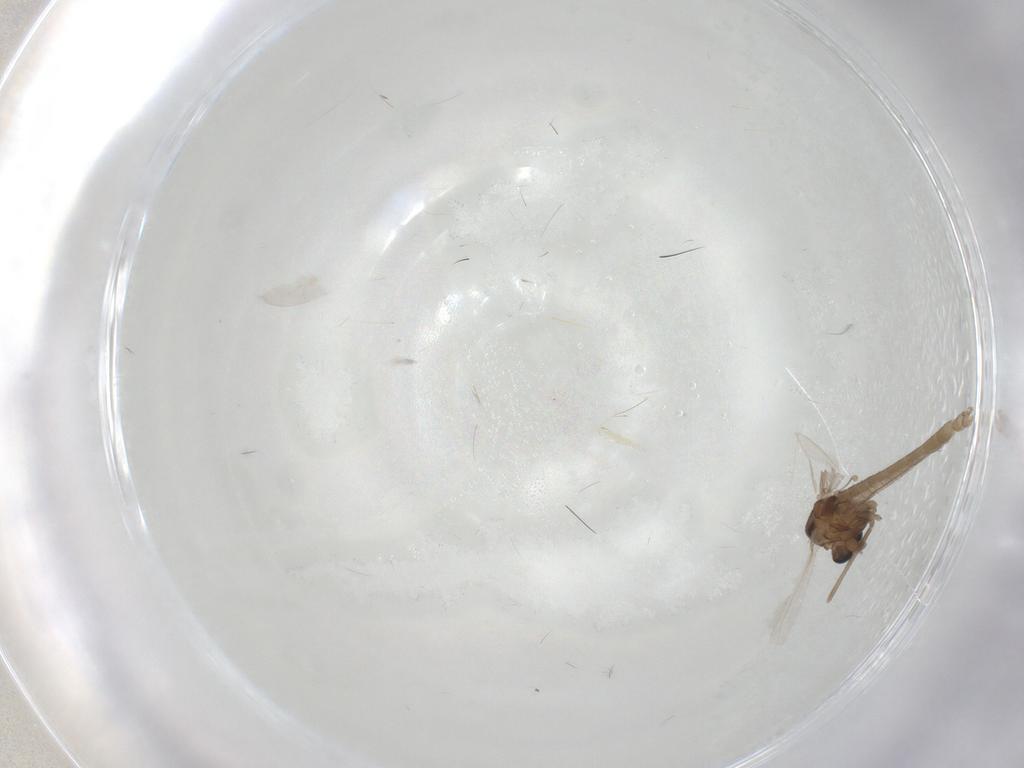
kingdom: Animalia
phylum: Arthropoda
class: Insecta
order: Diptera
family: Chironomidae
